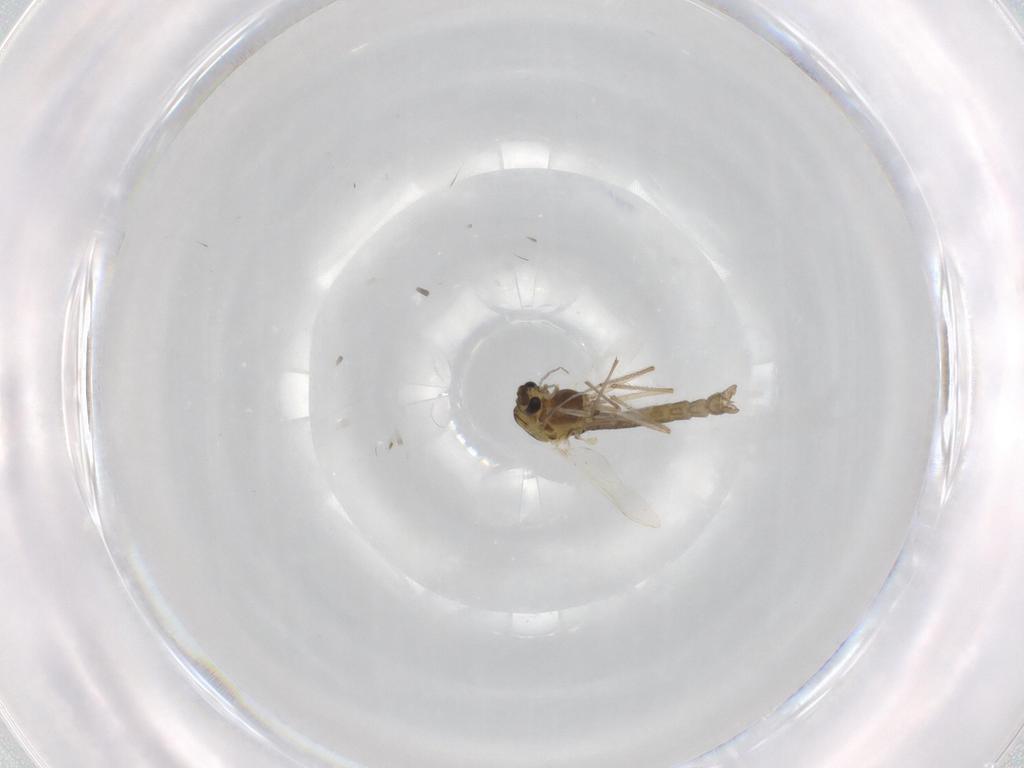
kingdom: Animalia
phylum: Arthropoda
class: Insecta
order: Diptera
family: Chironomidae
